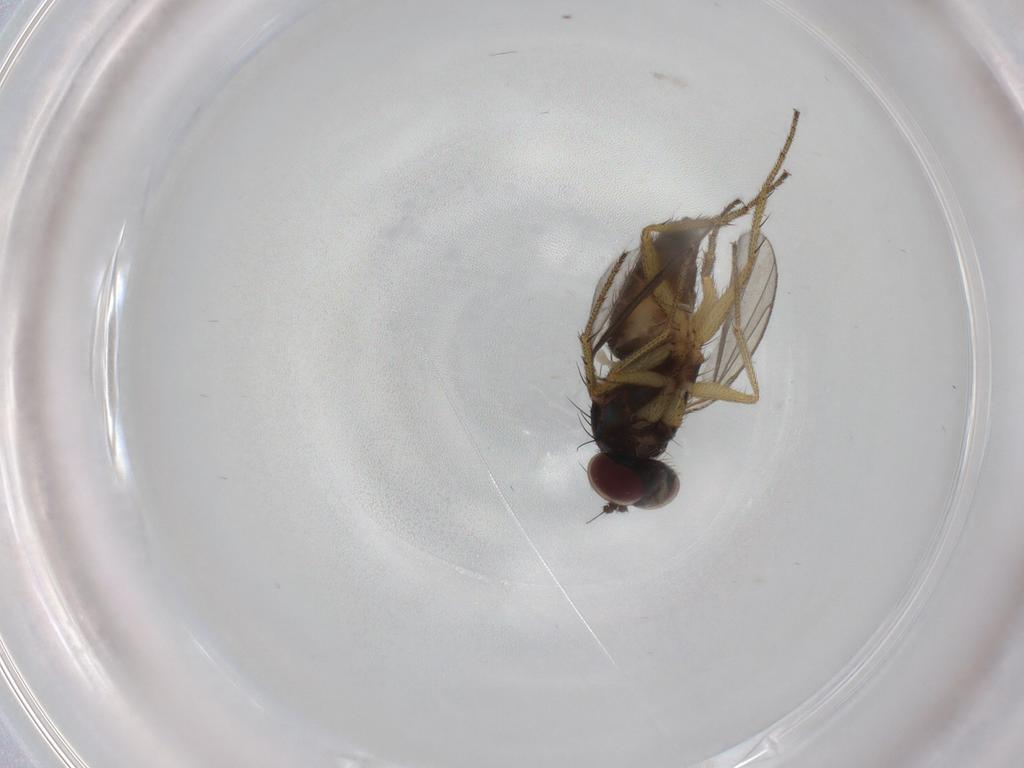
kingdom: Animalia
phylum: Arthropoda
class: Insecta
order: Diptera
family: Dolichopodidae
